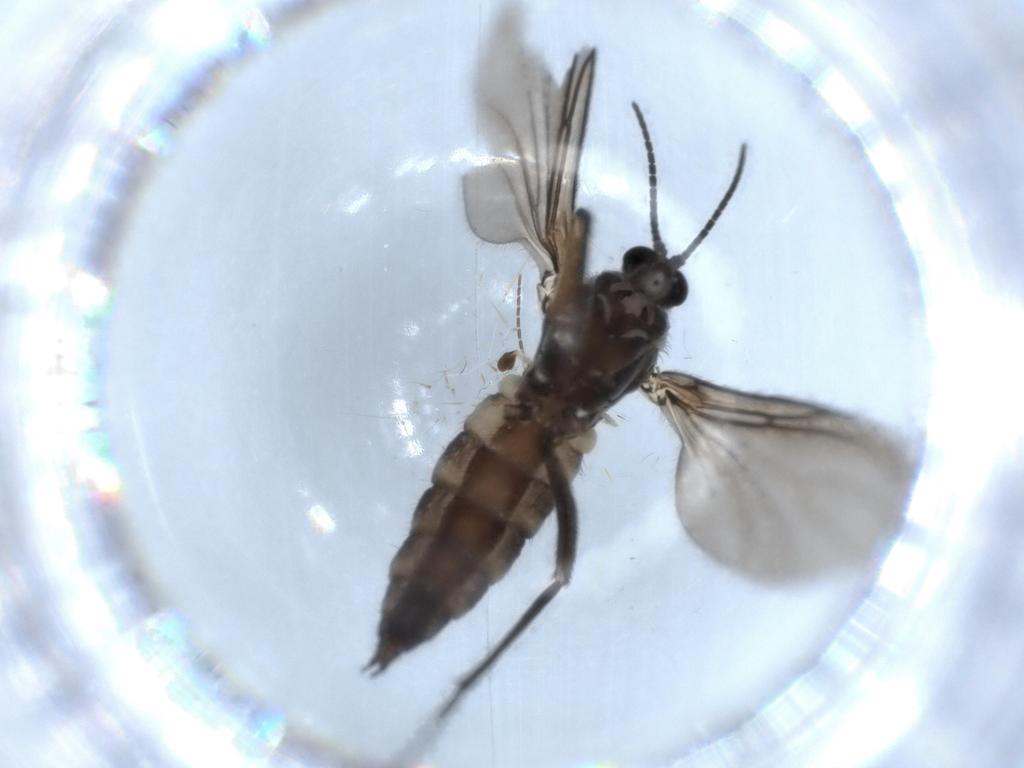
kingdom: Animalia
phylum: Arthropoda
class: Insecta
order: Diptera
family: Sciaridae
